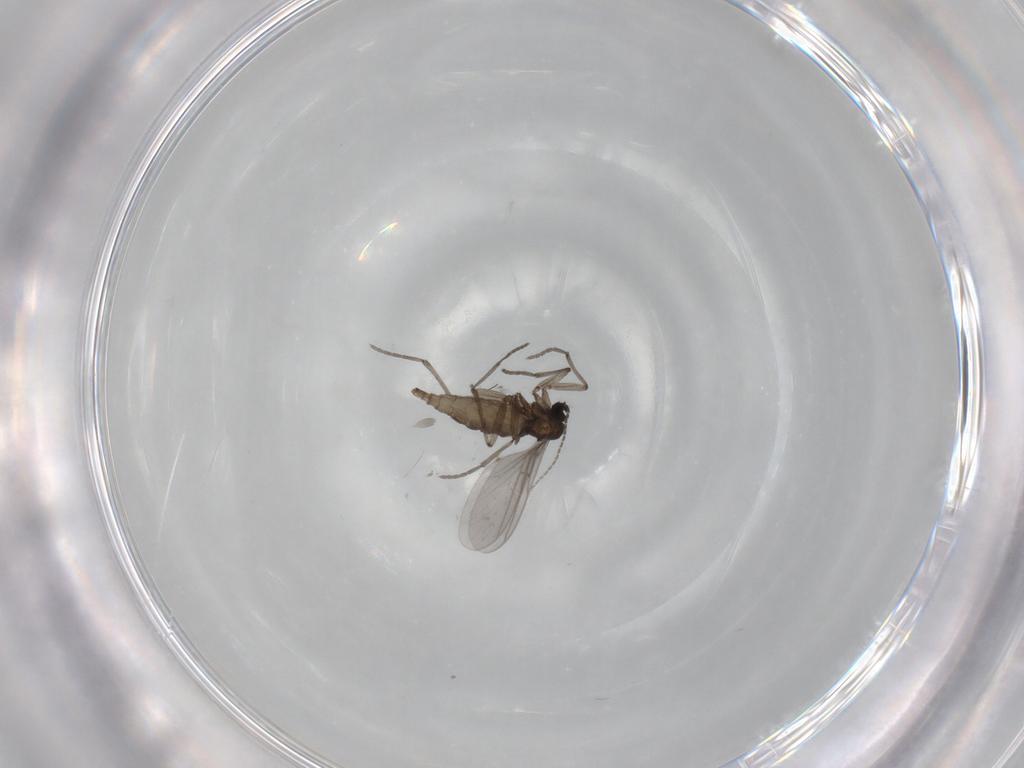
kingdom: Animalia
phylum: Arthropoda
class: Insecta
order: Diptera
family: Sciaridae
